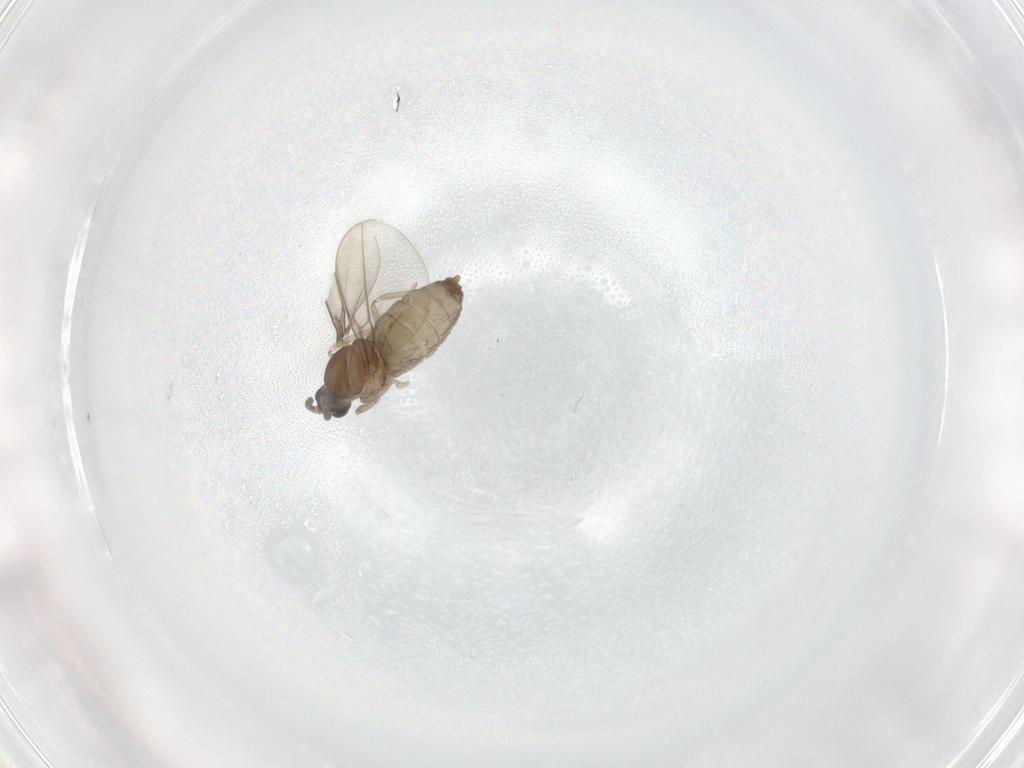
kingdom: Animalia
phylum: Arthropoda
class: Insecta
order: Diptera
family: Cecidomyiidae
